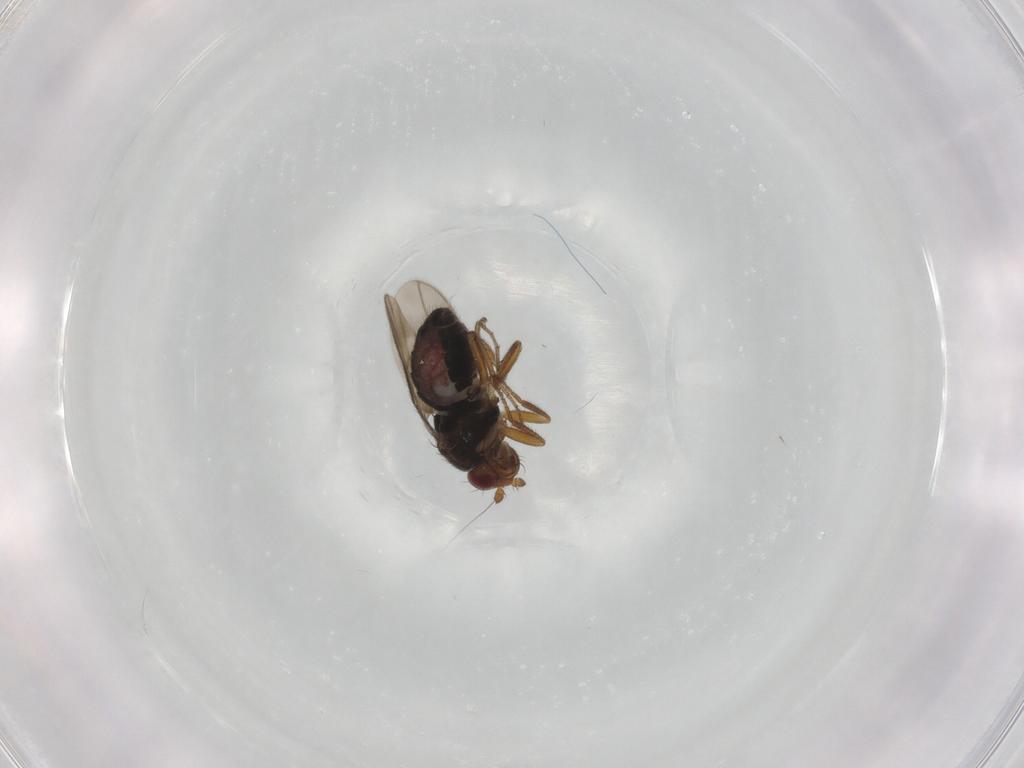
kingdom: Animalia
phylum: Arthropoda
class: Insecta
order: Diptera
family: Sphaeroceridae
